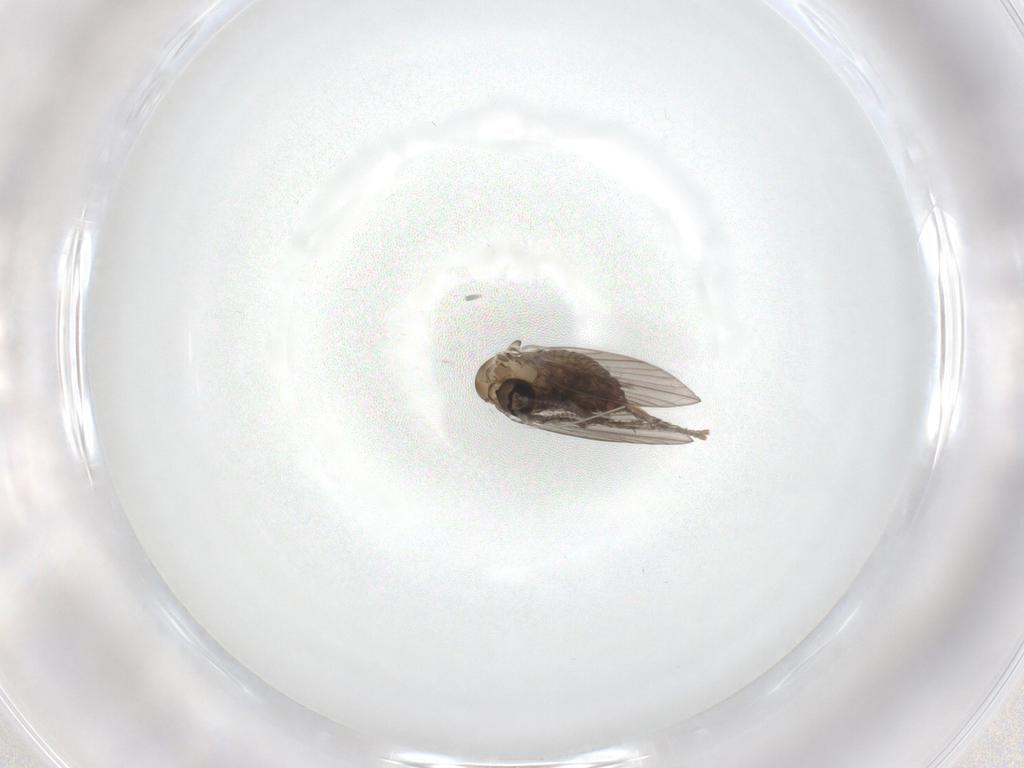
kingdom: Animalia
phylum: Arthropoda
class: Insecta
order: Diptera
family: Psychodidae
